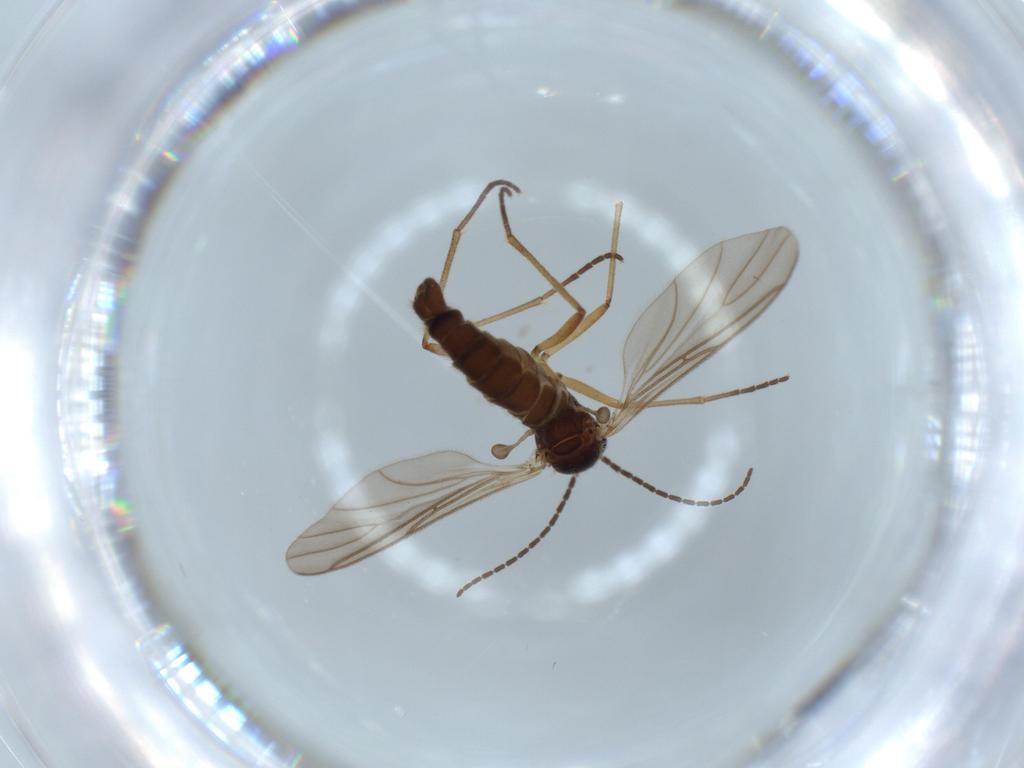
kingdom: Animalia
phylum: Arthropoda
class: Insecta
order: Diptera
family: Sciaridae
